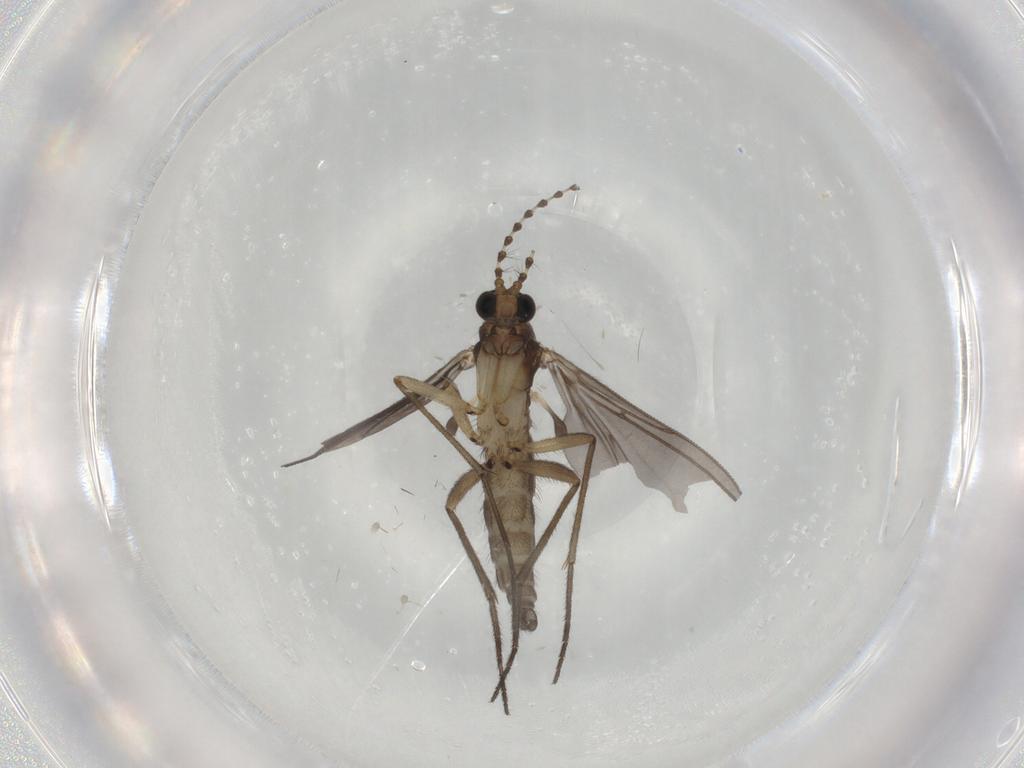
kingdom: Animalia
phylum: Arthropoda
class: Insecta
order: Diptera
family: Sciaridae
